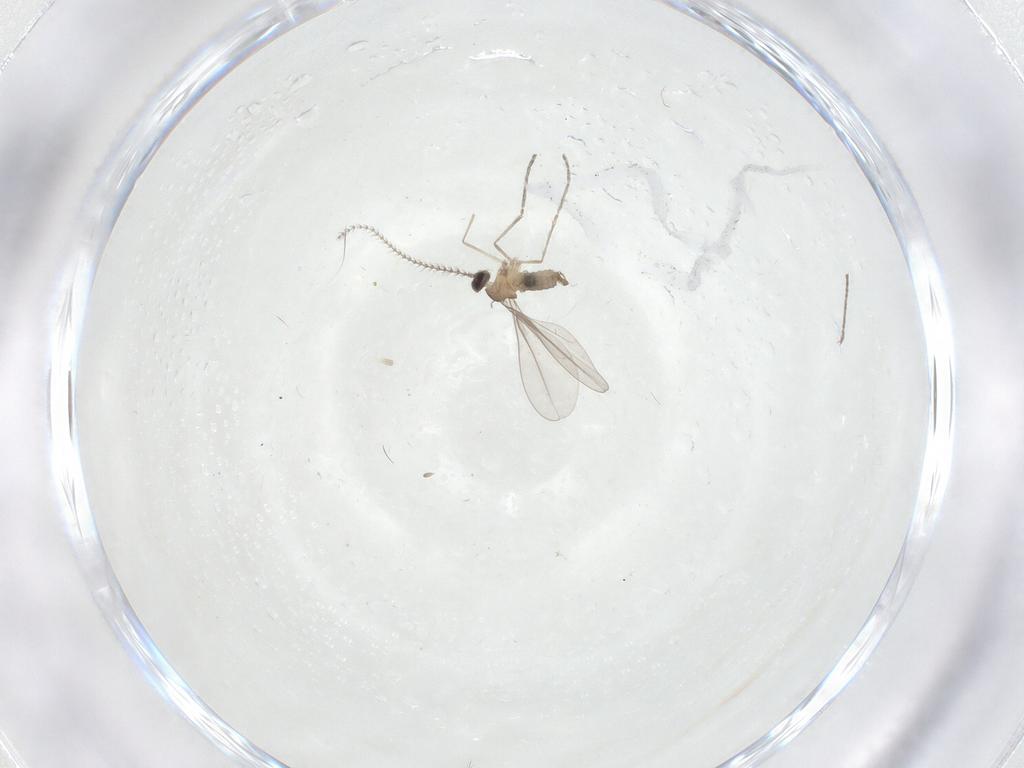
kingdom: Animalia
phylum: Arthropoda
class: Insecta
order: Diptera
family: Cecidomyiidae
